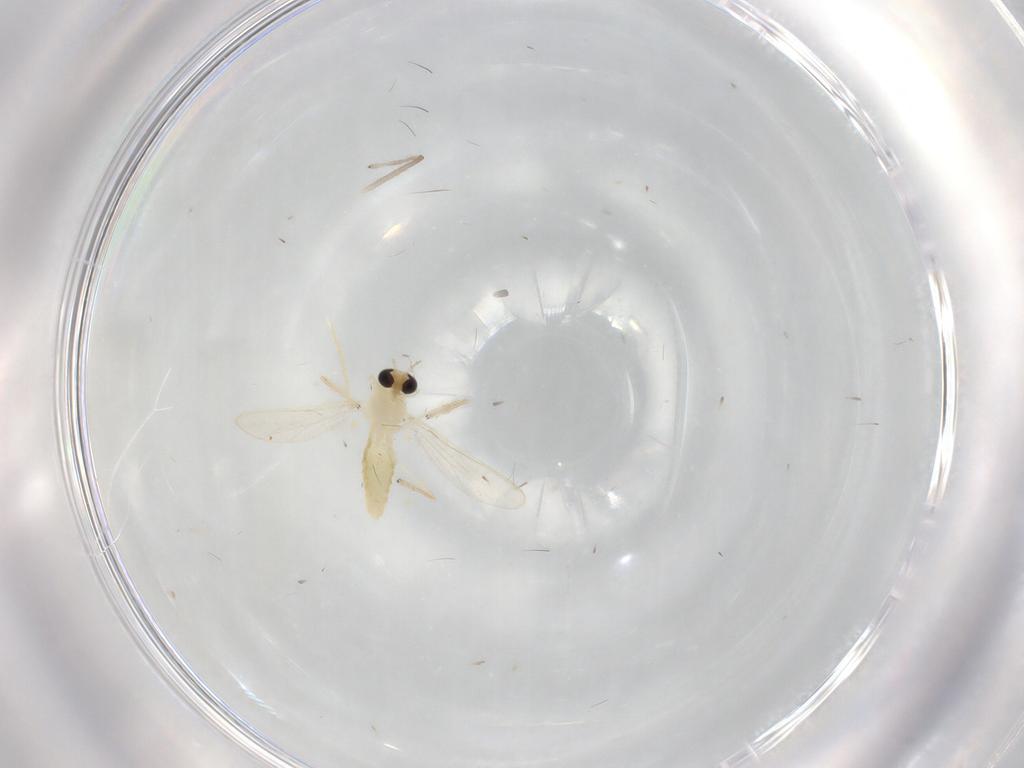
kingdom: Animalia
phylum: Arthropoda
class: Insecta
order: Diptera
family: Chironomidae
